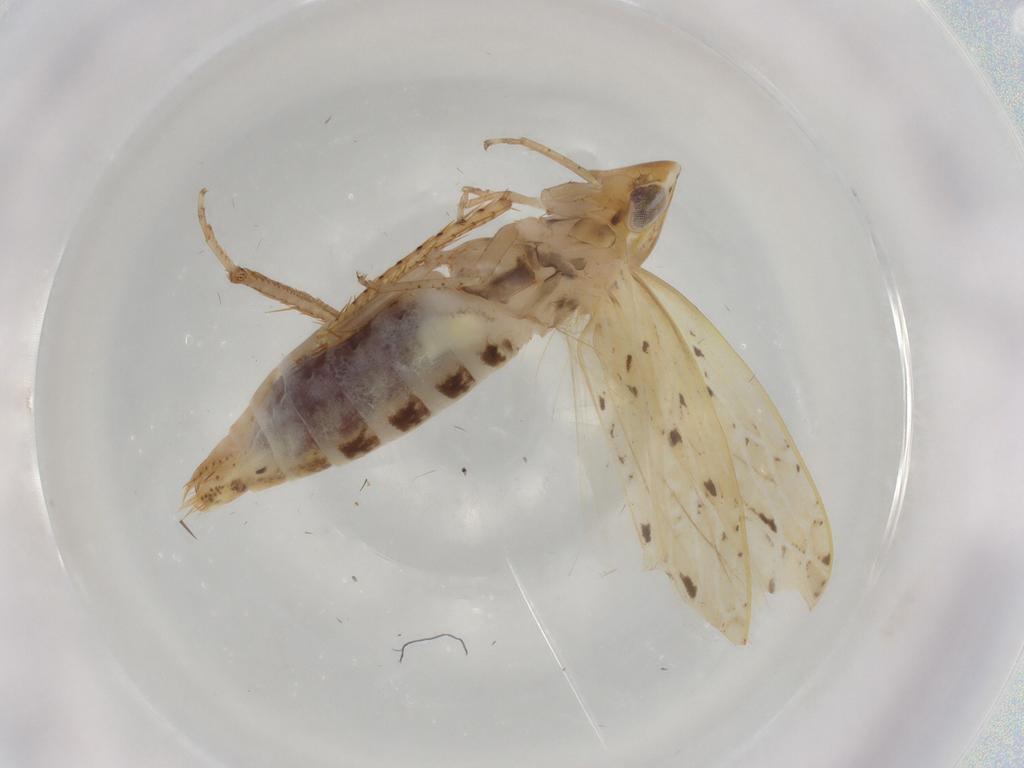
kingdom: Animalia
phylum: Arthropoda
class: Insecta
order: Hemiptera
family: Cicadellidae
